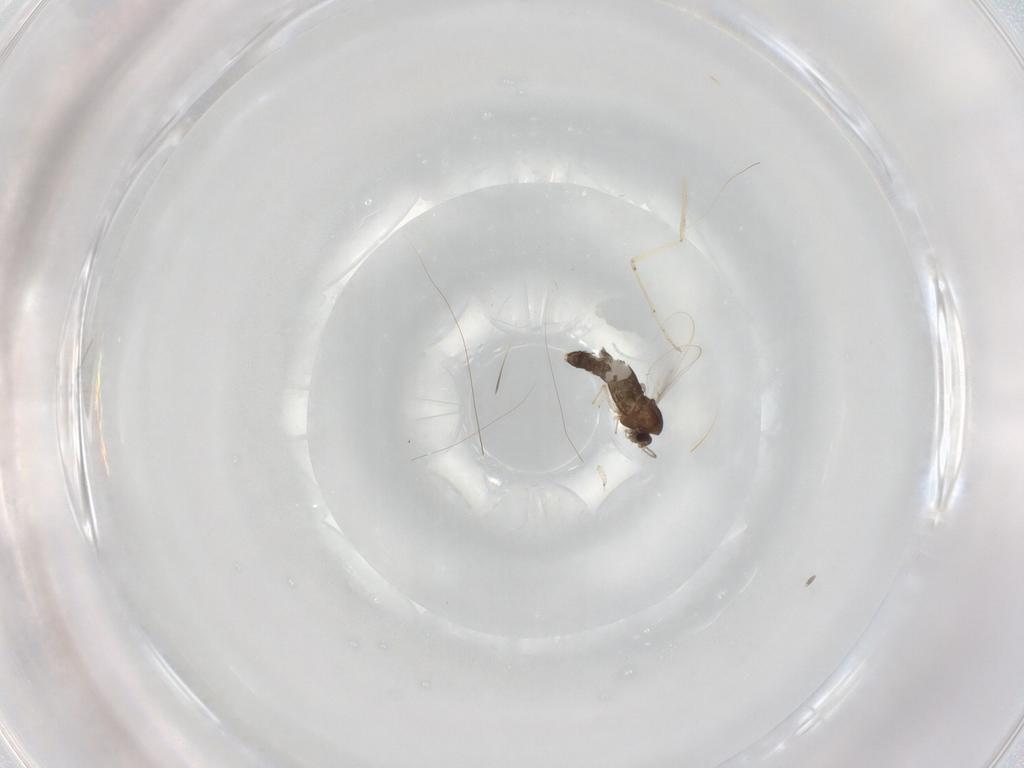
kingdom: Animalia
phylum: Arthropoda
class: Insecta
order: Diptera
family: Chironomidae
